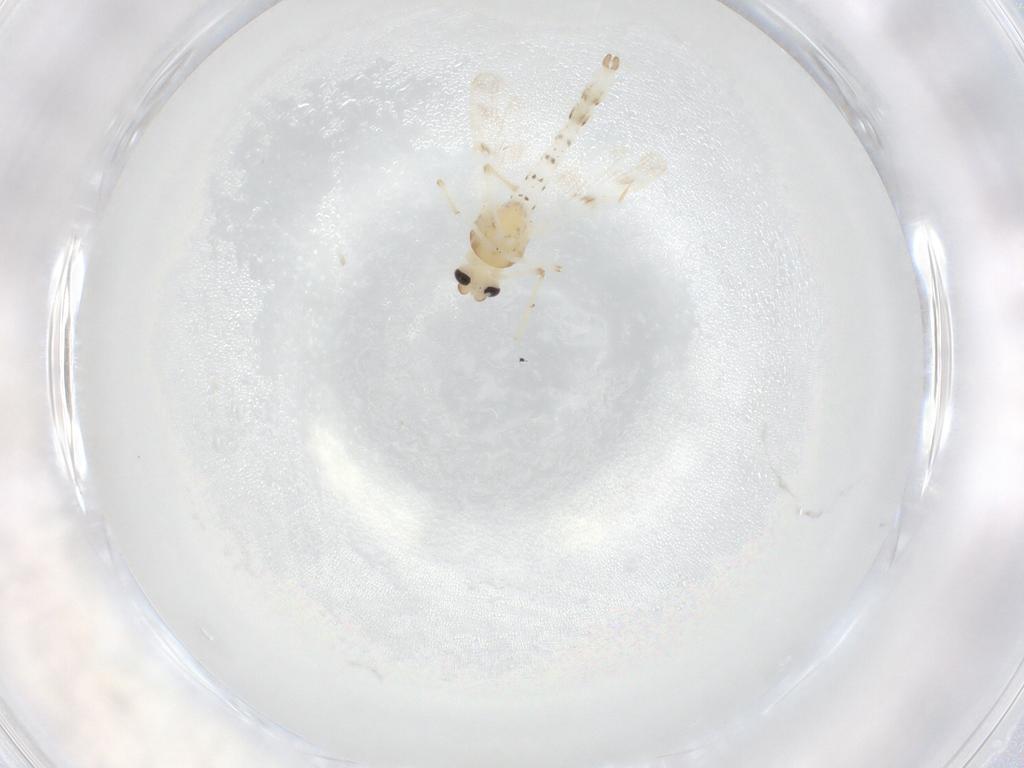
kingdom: Animalia
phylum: Arthropoda
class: Insecta
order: Diptera
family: Chironomidae
